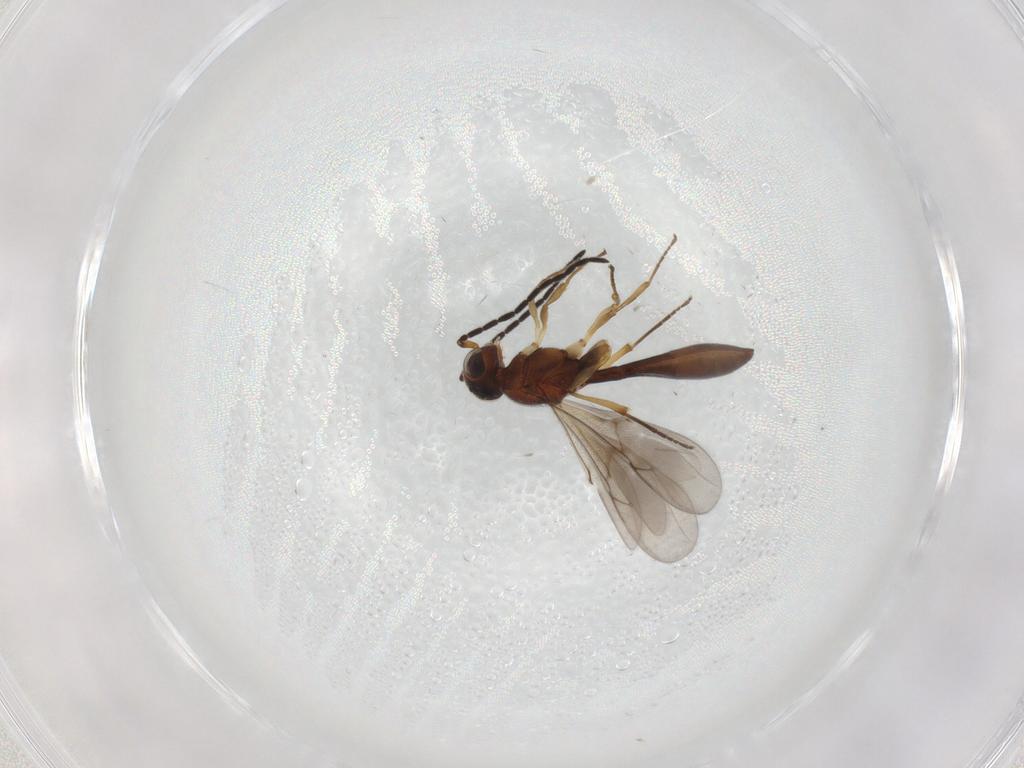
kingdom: Animalia
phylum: Arthropoda
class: Insecta
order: Hymenoptera
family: Scelionidae
